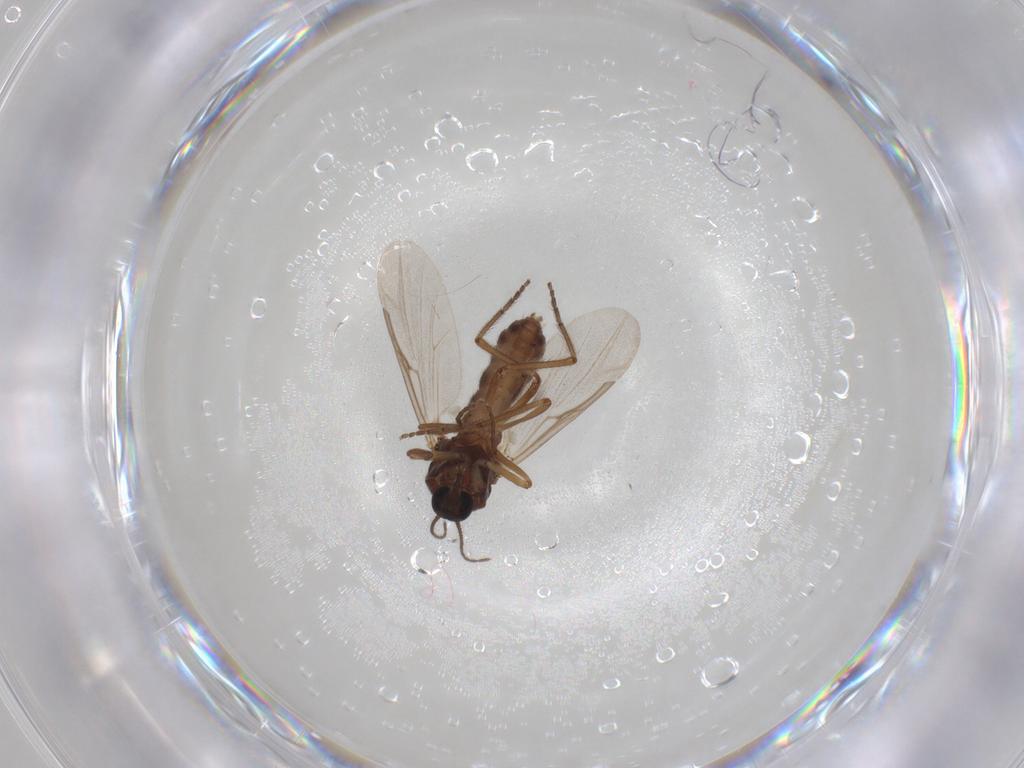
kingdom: Animalia
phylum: Arthropoda
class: Insecta
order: Diptera
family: Ceratopogonidae
